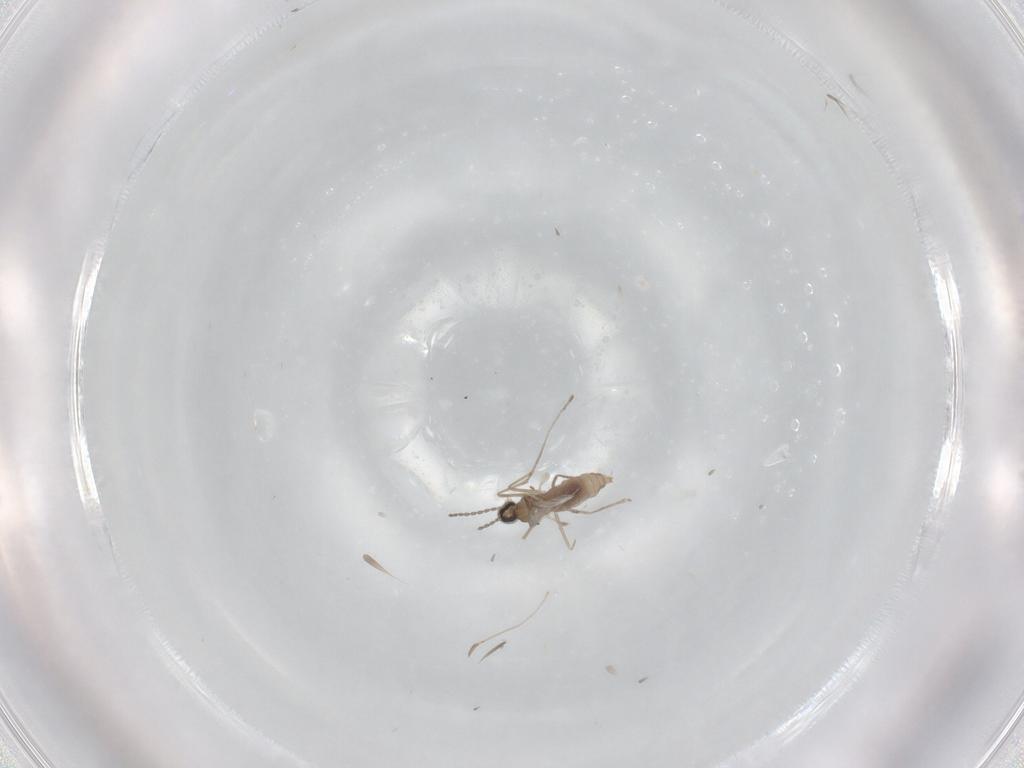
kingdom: Animalia
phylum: Arthropoda
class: Insecta
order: Diptera
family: Cecidomyiidae
